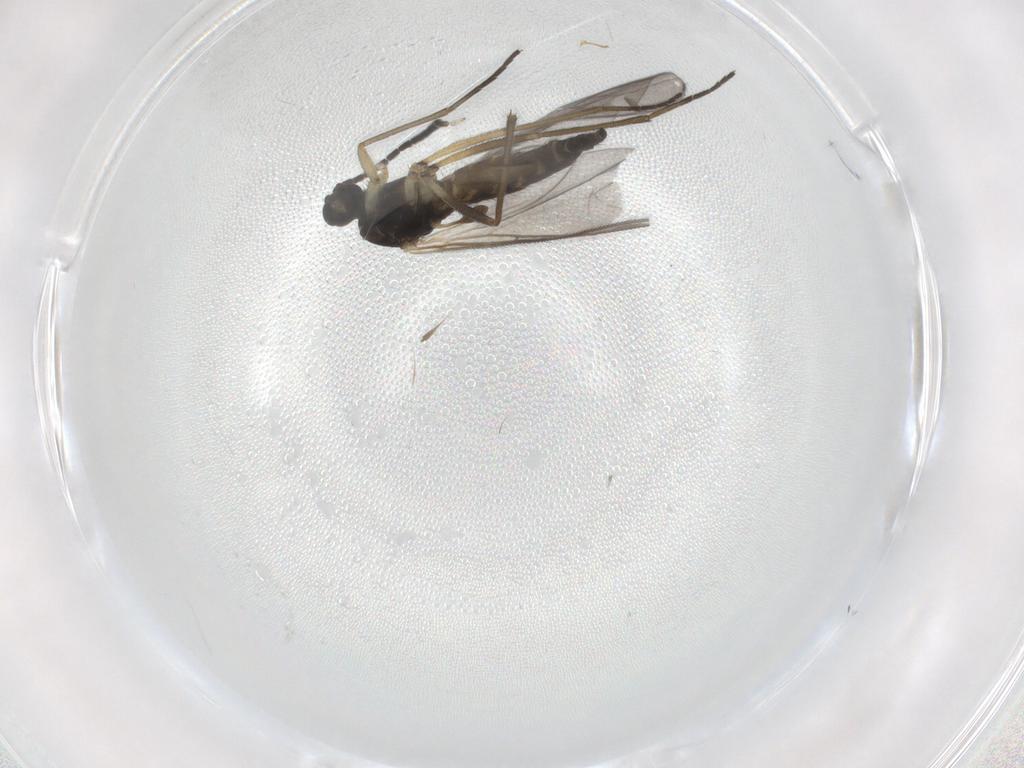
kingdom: Animalia
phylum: Arthropoda
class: Insecta
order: Diptera
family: Sciaridae
